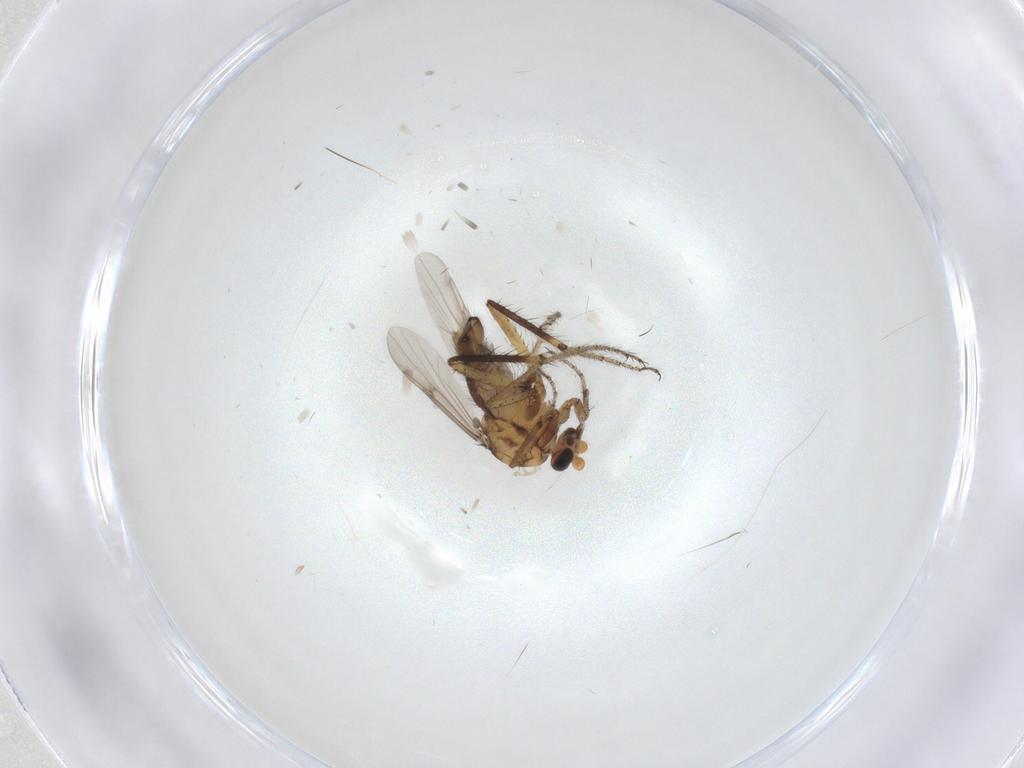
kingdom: Animalia
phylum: Arthropoda
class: Insecta
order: Diptera
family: Ceratopogonidae
